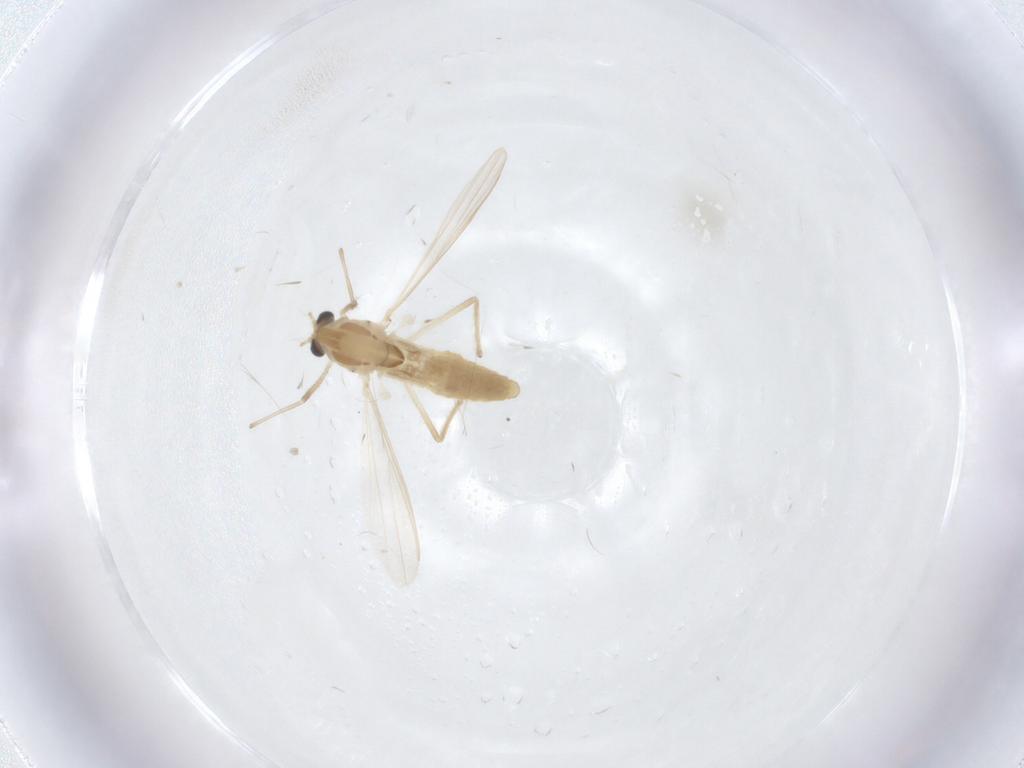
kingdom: Animalia
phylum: Arthropoda
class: Insecta
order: Diptera
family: Chironomidae
